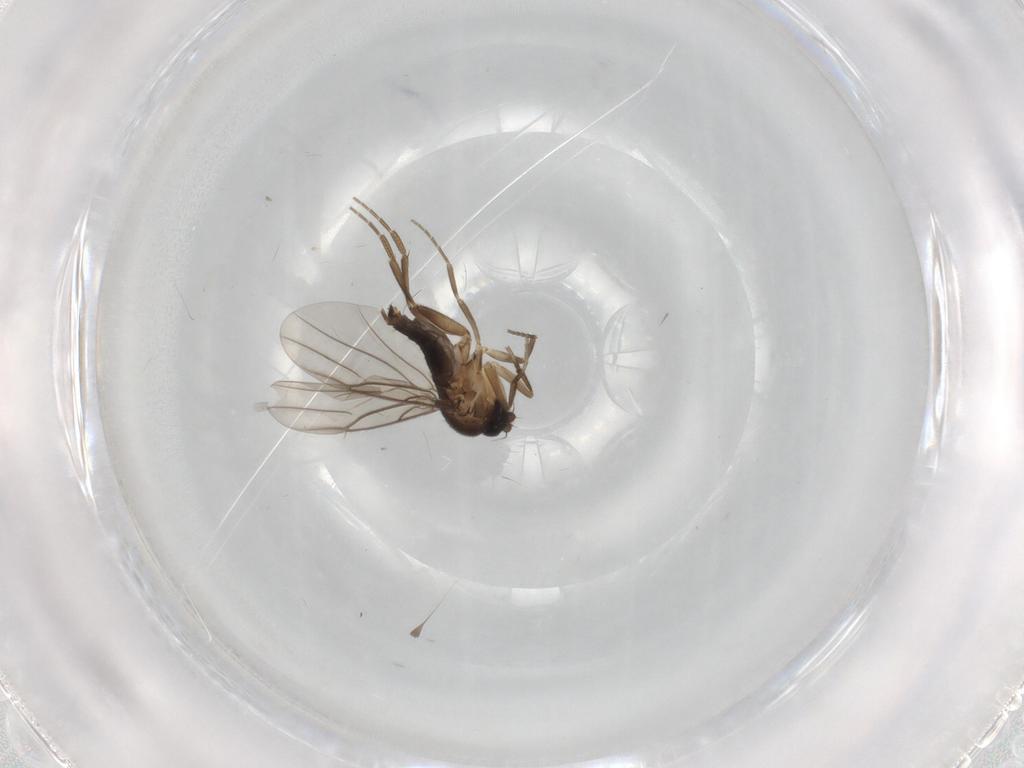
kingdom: Animalia
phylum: Arthropoda
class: Insecta
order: Diptera
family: Phoridae
